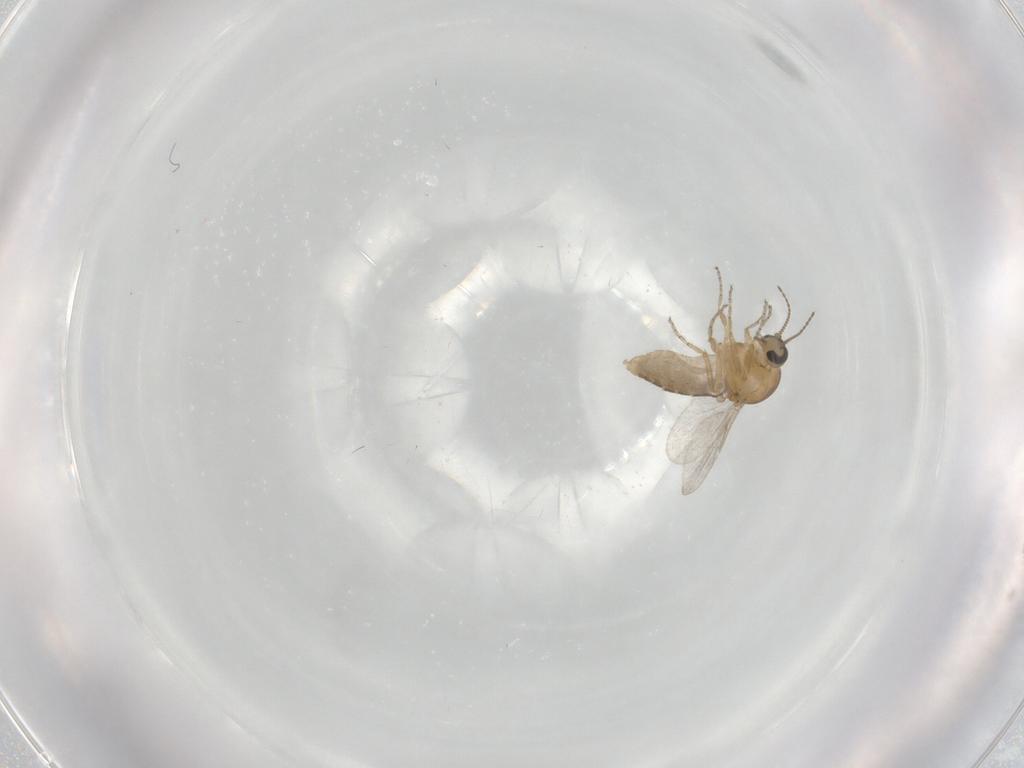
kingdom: Animalia
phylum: Arthropoda
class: Insecta
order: Diptera
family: Ceratopogonidae
